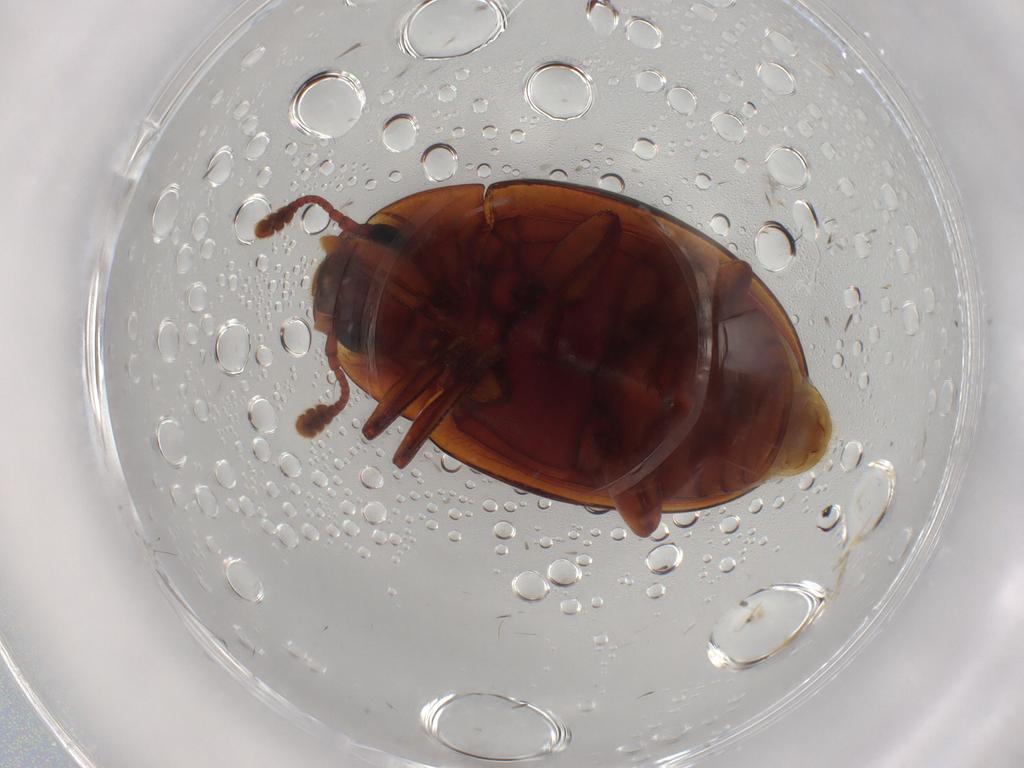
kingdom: Animalia
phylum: Arthropoda
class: Insecta
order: Coleoptera
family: Zopheridae
